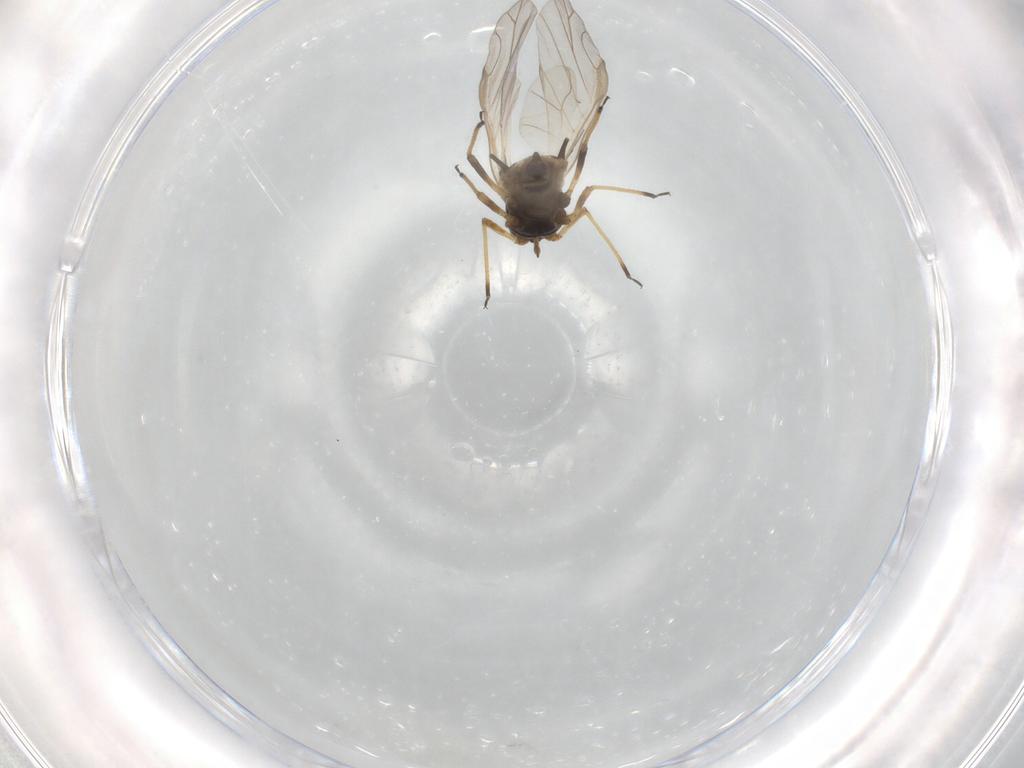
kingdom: Animalia
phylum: Arthropoda
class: Insecta
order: Hemiptera
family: Aphididae
